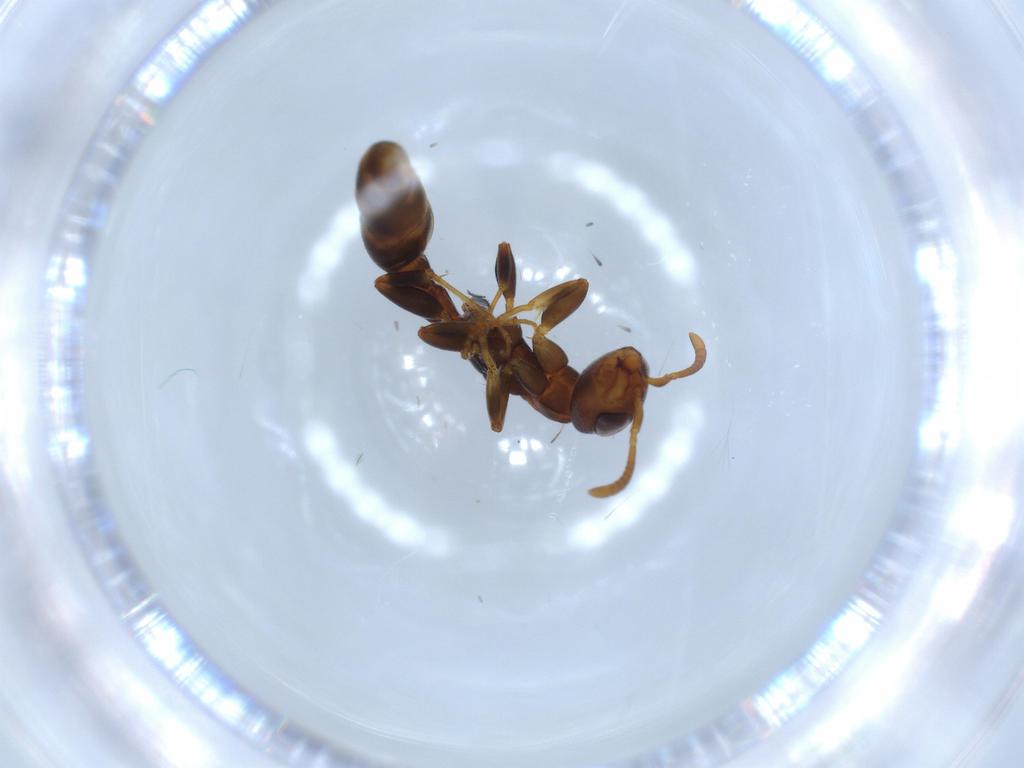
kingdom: Animalia
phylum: Arthropoda
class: Insecta
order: Hymenoptera
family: Formicidae
